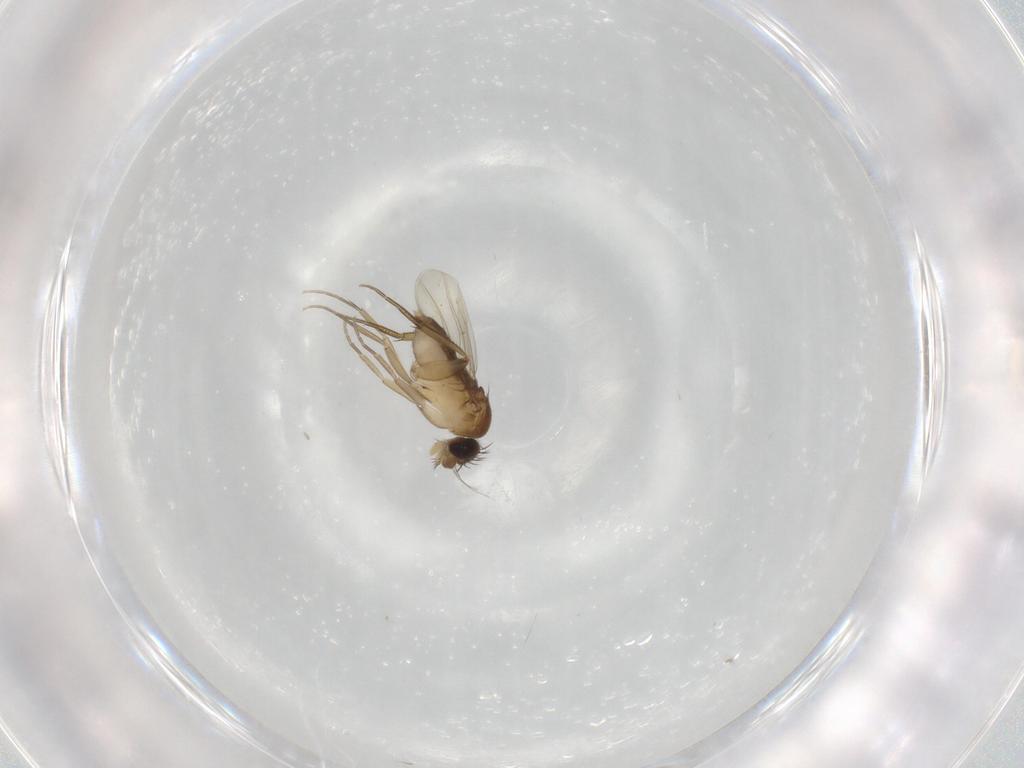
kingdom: Animalia
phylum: Arthropoda
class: Insecta
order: Diptera
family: Phoridae
